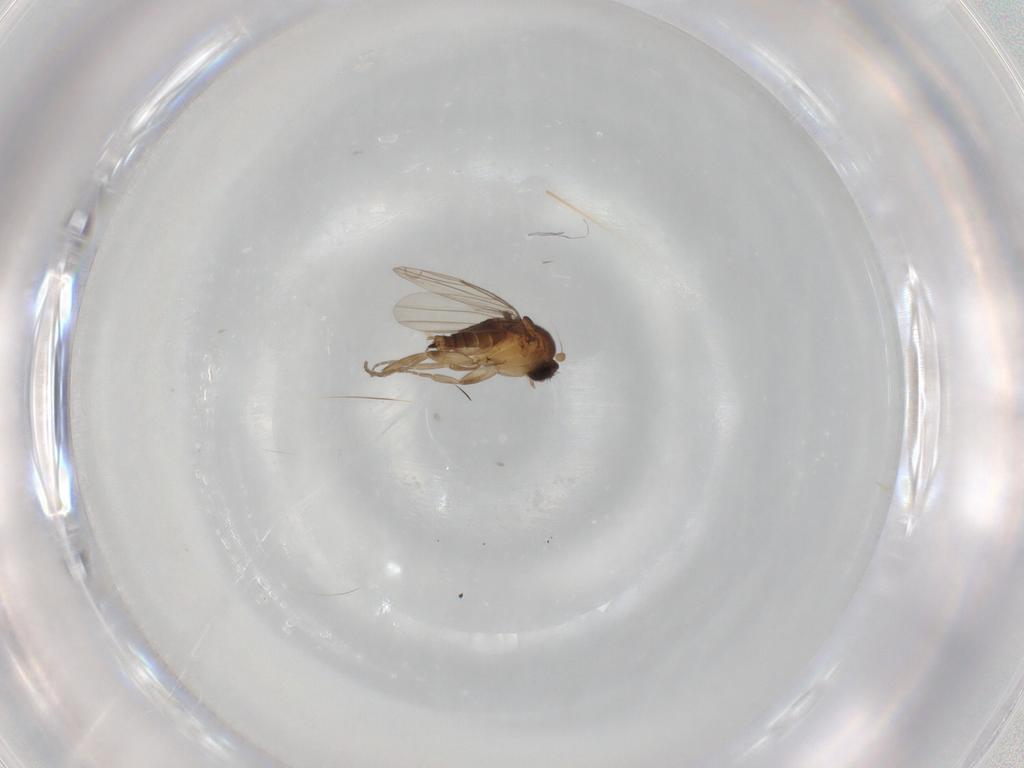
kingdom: Animalia
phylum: Arthropoda
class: Insecta
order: Diptera
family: Phoridae
